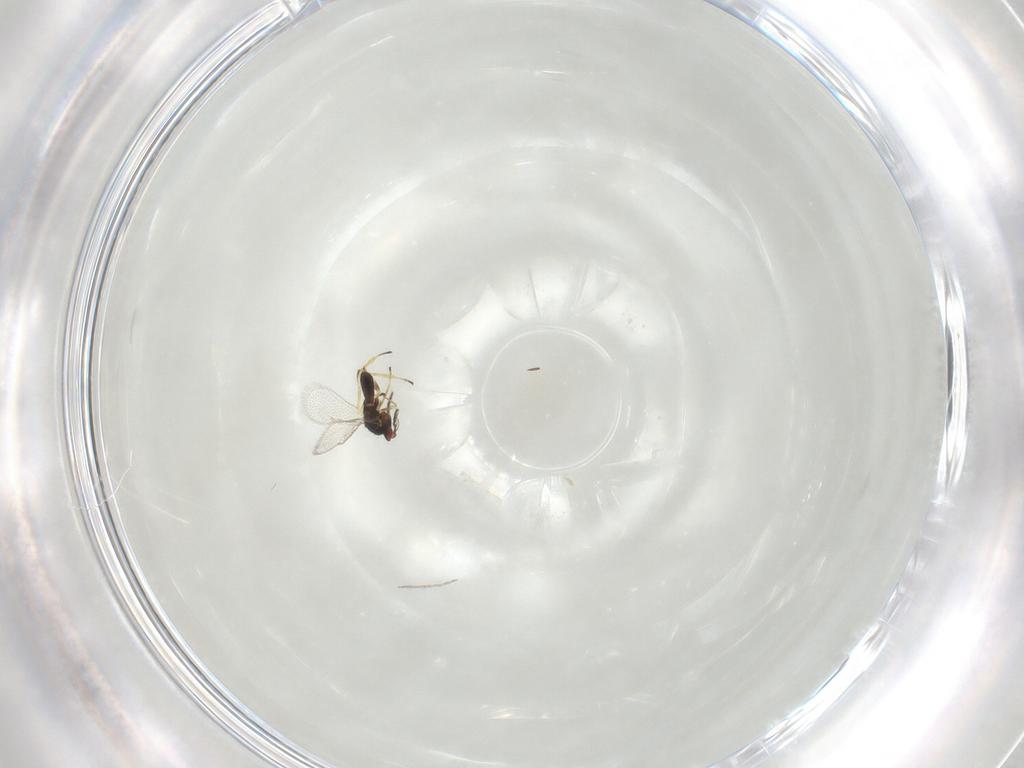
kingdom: Animalia
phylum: Arthropoda
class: Insecta
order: Hymenoptera
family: Eulophidae
